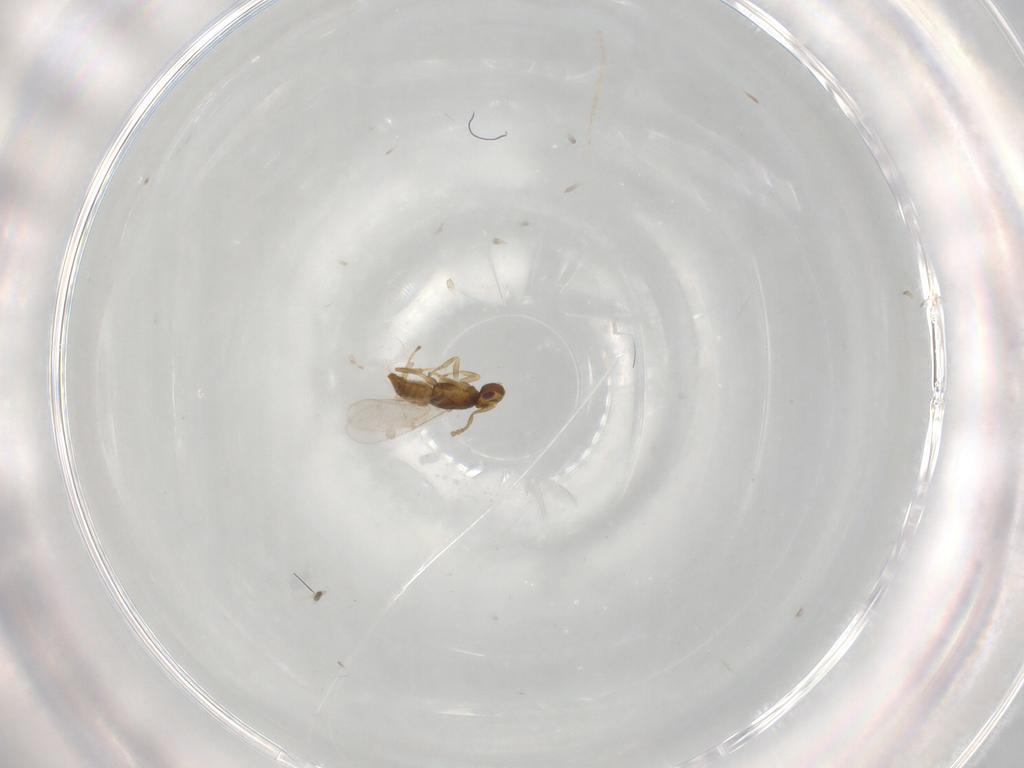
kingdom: Animalia
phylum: Arthropoda
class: Insecta
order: Hymenoptera
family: Encyrtidae
